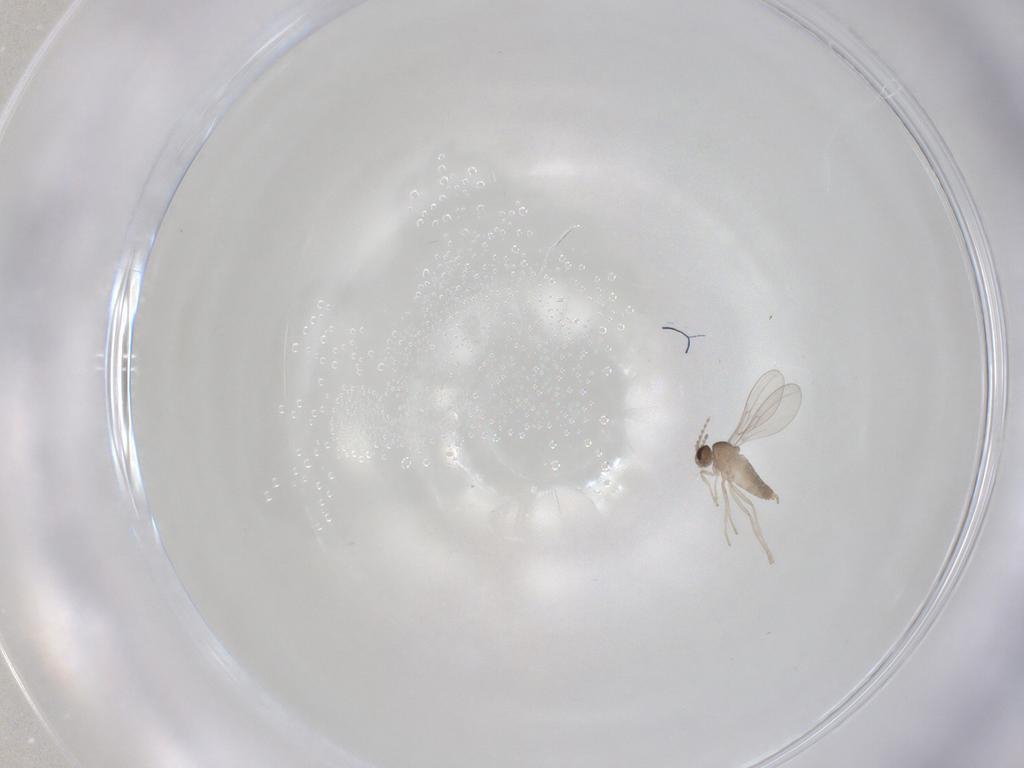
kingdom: Animalia
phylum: Arthropoda
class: Insecta
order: Diptera
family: Cecidomyiidae
